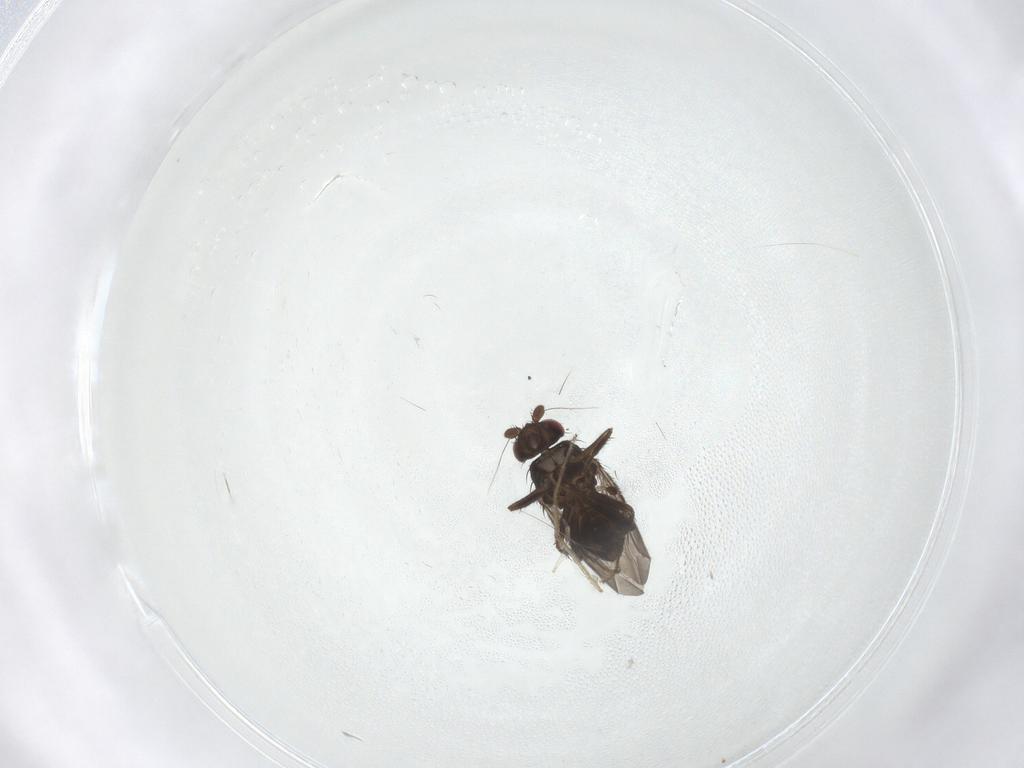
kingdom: Animalia
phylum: Arthropoda
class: Insecta
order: Diptera
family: Sphaeroceridae
